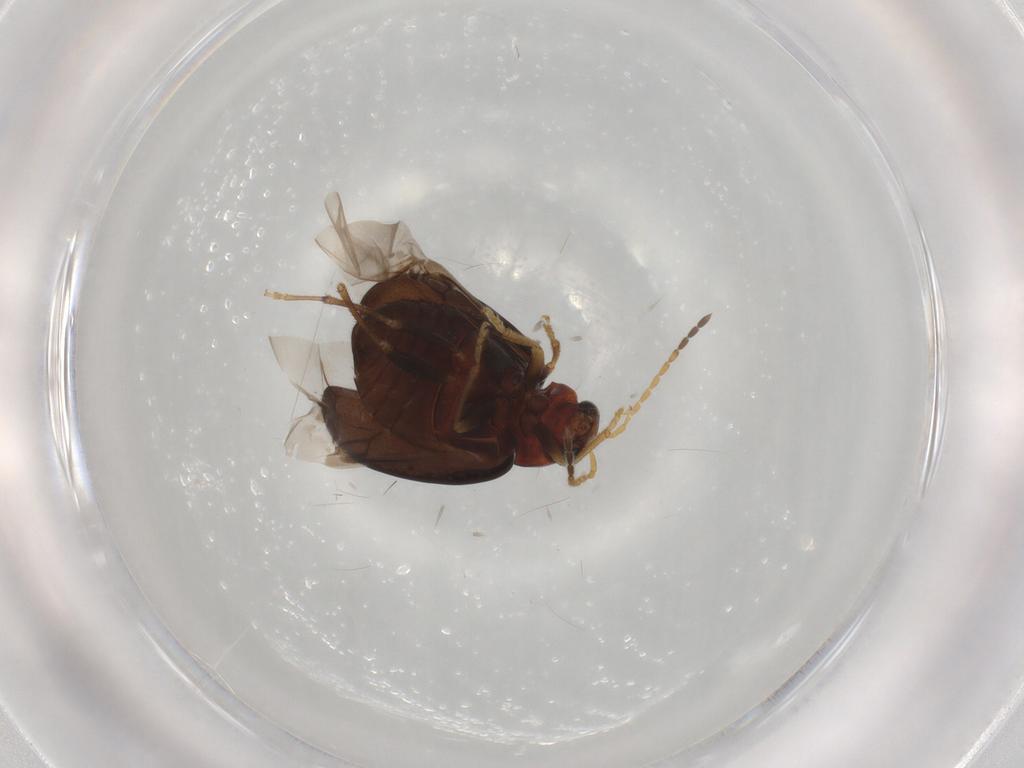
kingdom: Animalia
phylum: Arthropoda
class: Insecta
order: Coleoptera
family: Chrysomelidae
